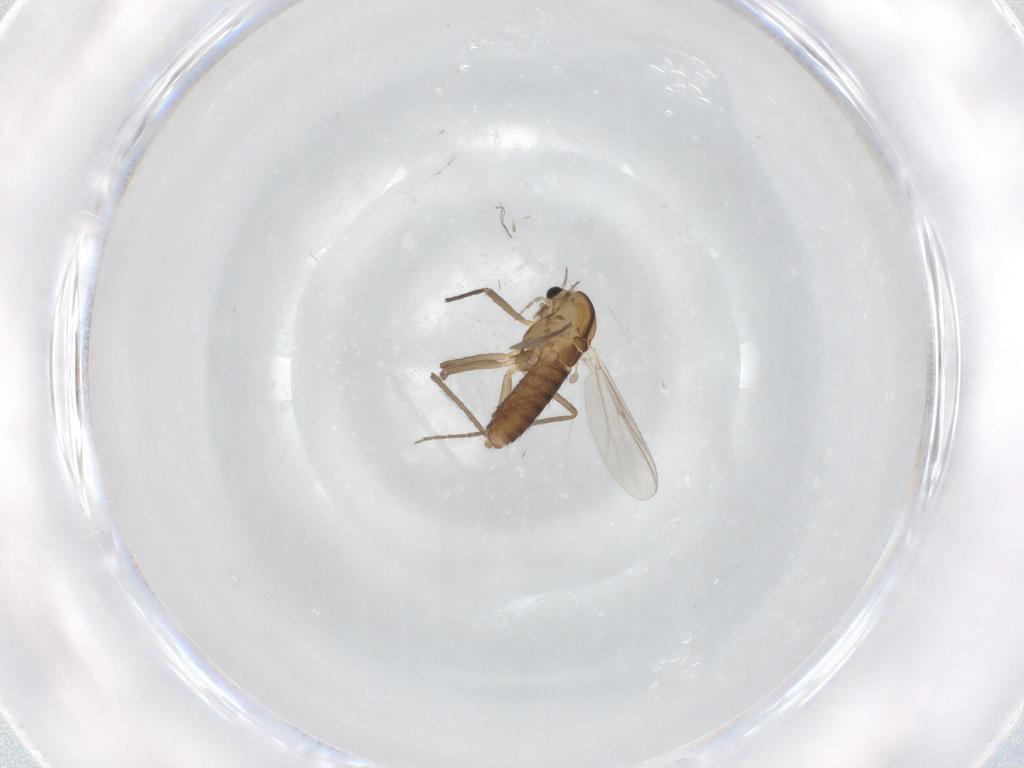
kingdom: Animalia
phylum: Arthropoda
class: Insecta
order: Diptera
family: Chironomidae
